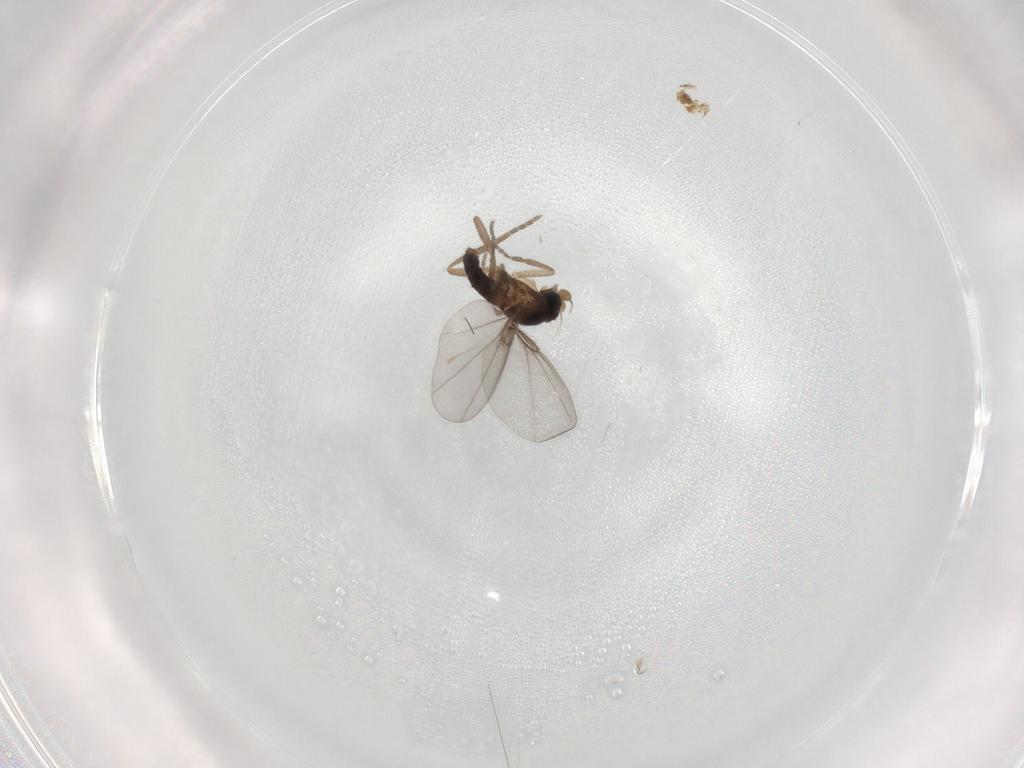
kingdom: Animalia
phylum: Arthropoda
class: Insecta
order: Diptera
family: Phoridae
